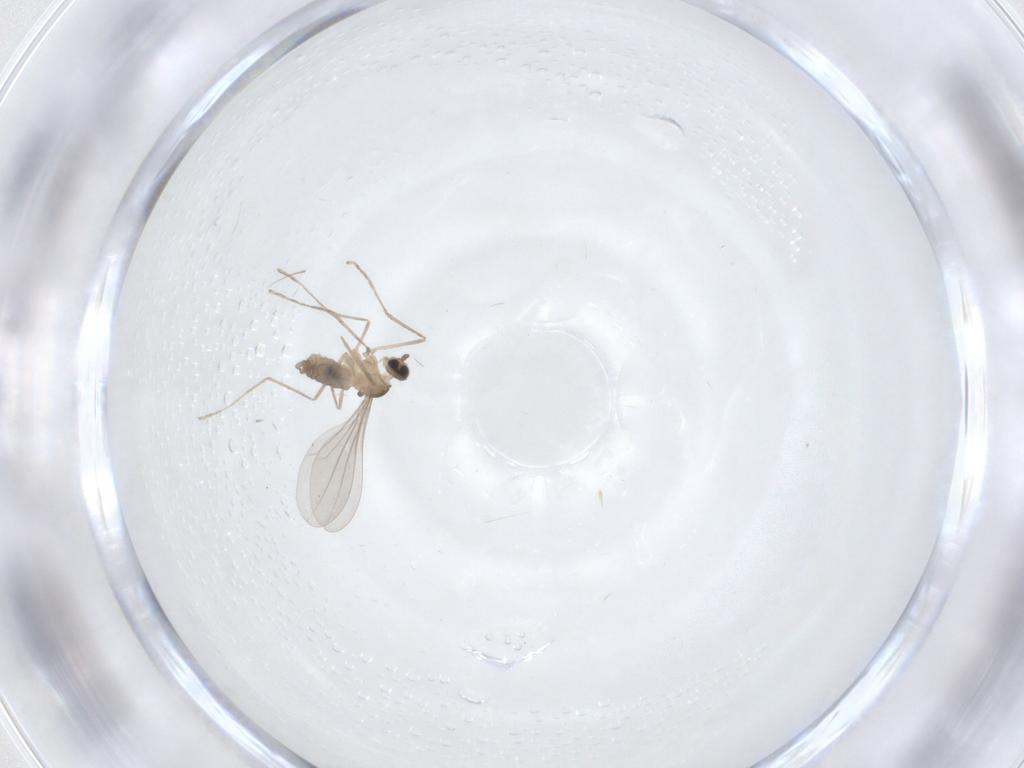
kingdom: Animalia
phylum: Arthropoda
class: Insecta
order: Diptera
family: Cecidomyiidae
